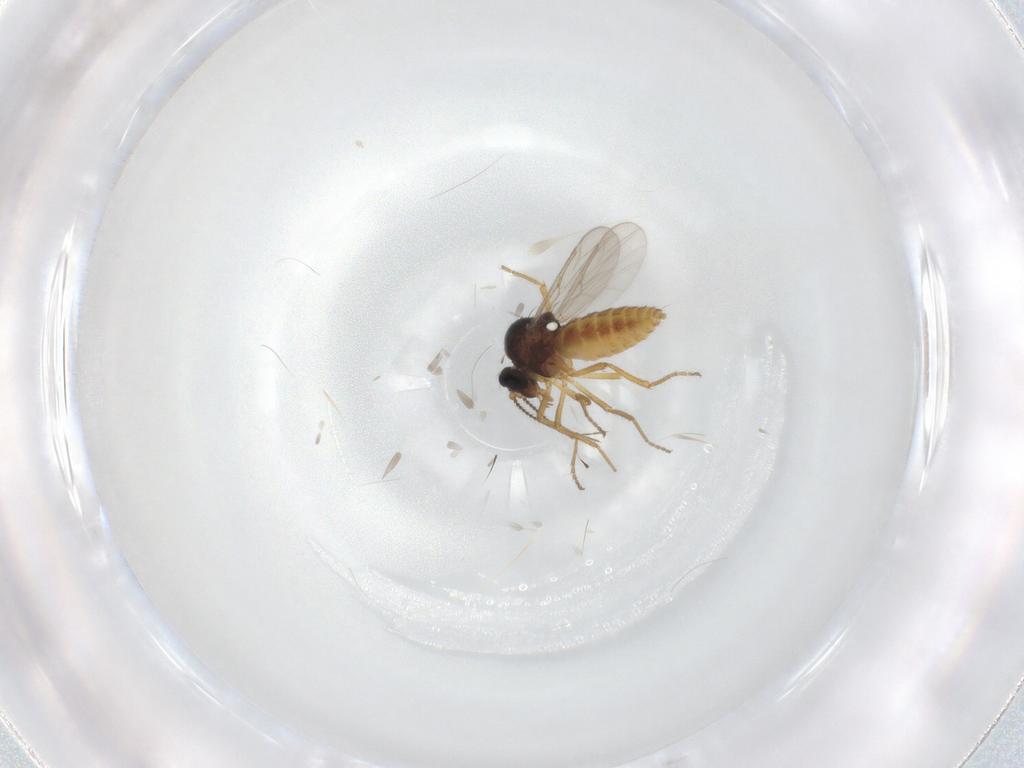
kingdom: Animalia
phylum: Arthropoda
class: Insecta
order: Diptera
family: Ceratopogonidae
